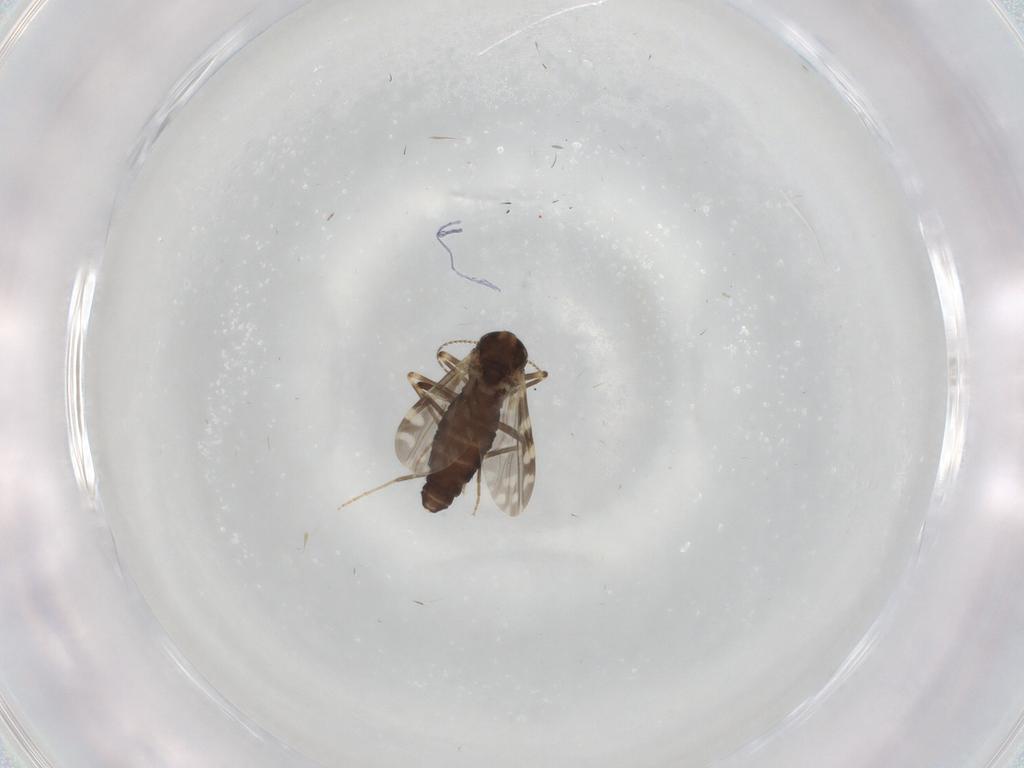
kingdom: Animalia
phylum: Arthropoda
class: Insecta
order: Diptera
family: Ceratopogonidae
